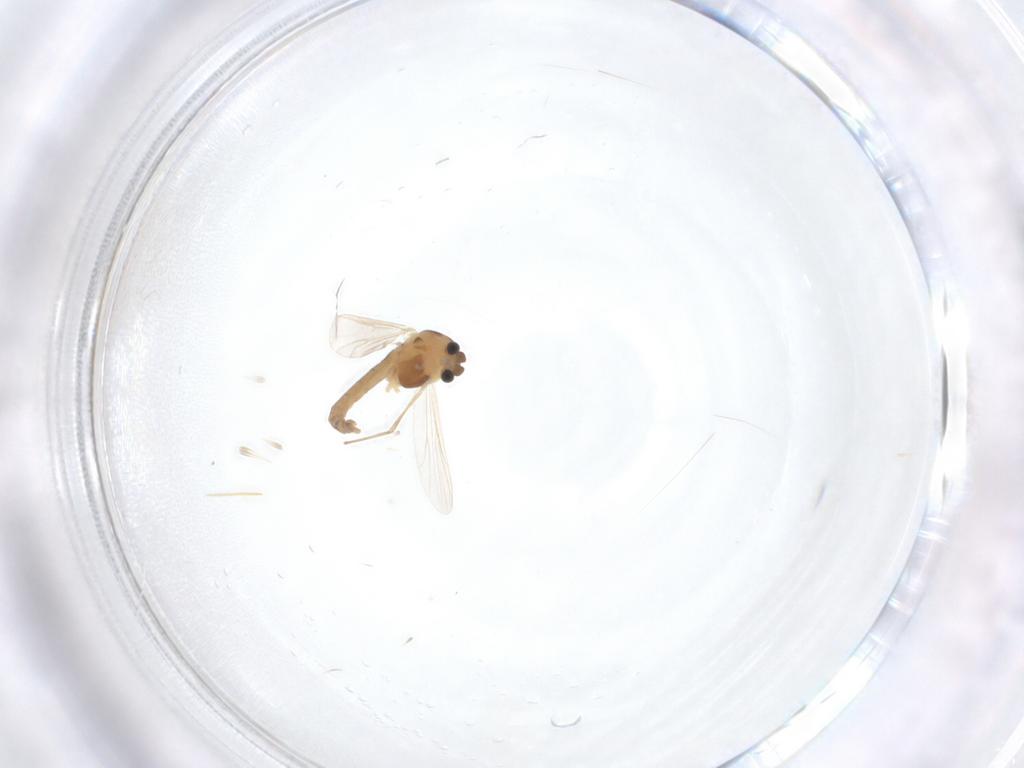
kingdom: Animalia
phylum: Arthropoda
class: Insecta
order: Diptera
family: Chironomidae
